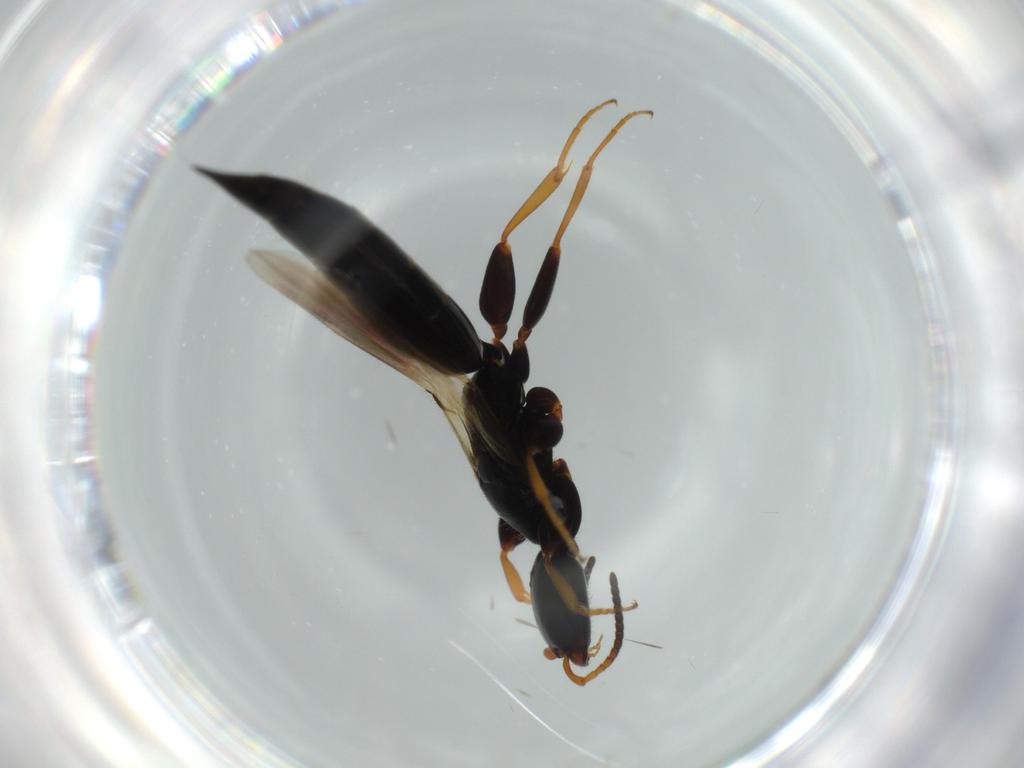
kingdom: Animalia
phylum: Arthropoda
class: Insecta
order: Hymenoptera
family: Bethylidae
